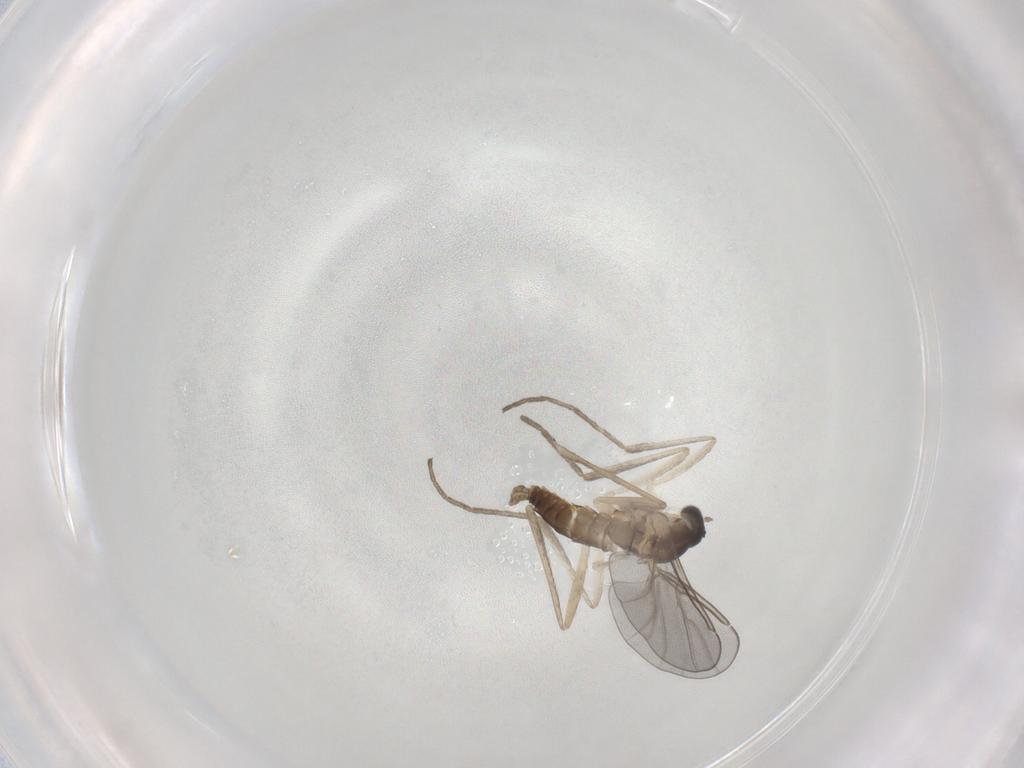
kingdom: Animalia
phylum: Arthropoda
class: Insecta
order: Diptera
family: Cecidomyiidae
